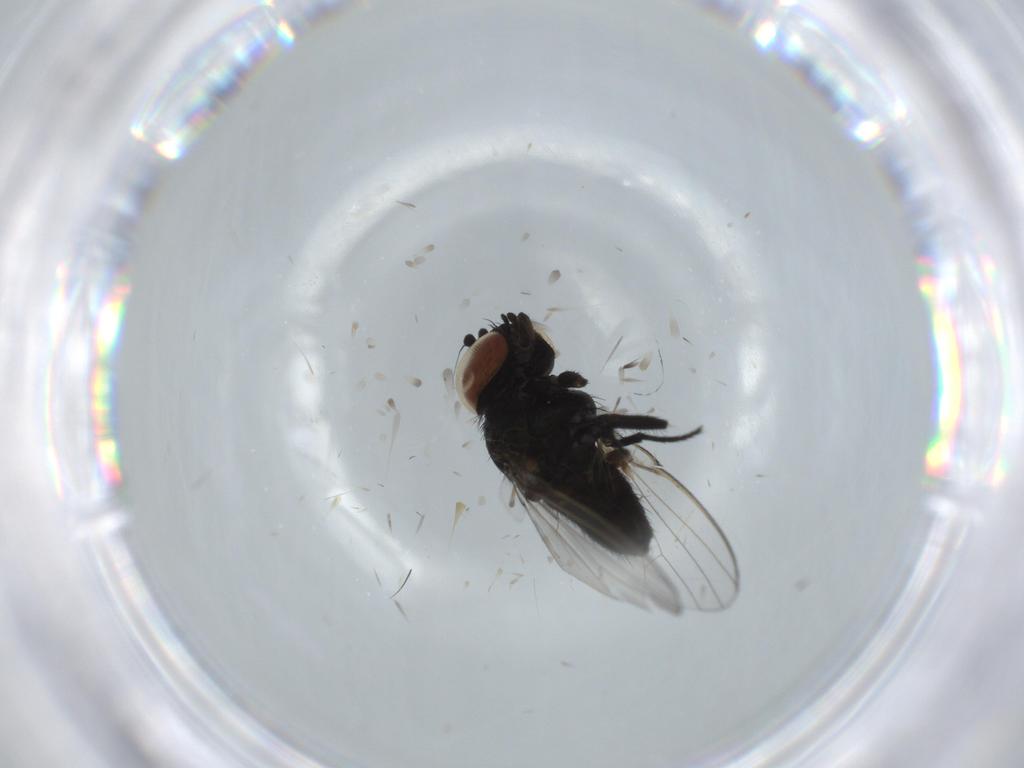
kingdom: Animalia
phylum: Arthropoda
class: Insecta
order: Diptera
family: Milichiidae
